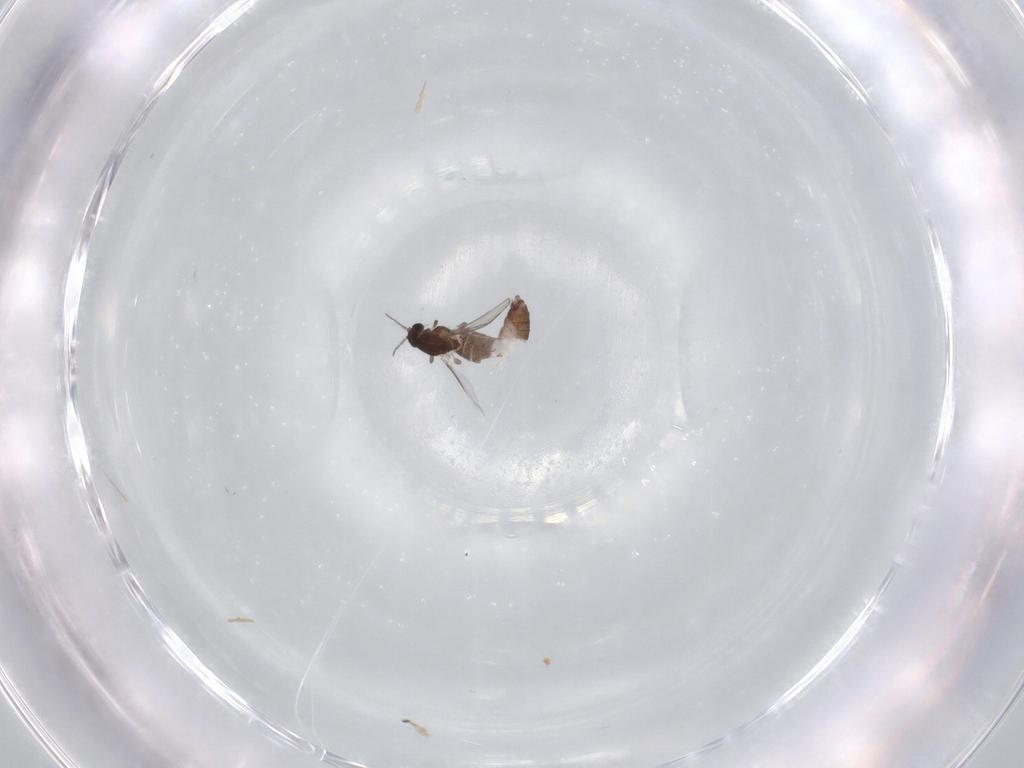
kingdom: Animalia
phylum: Arthropoda
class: Insecta
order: Diptera
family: Chironomidae
